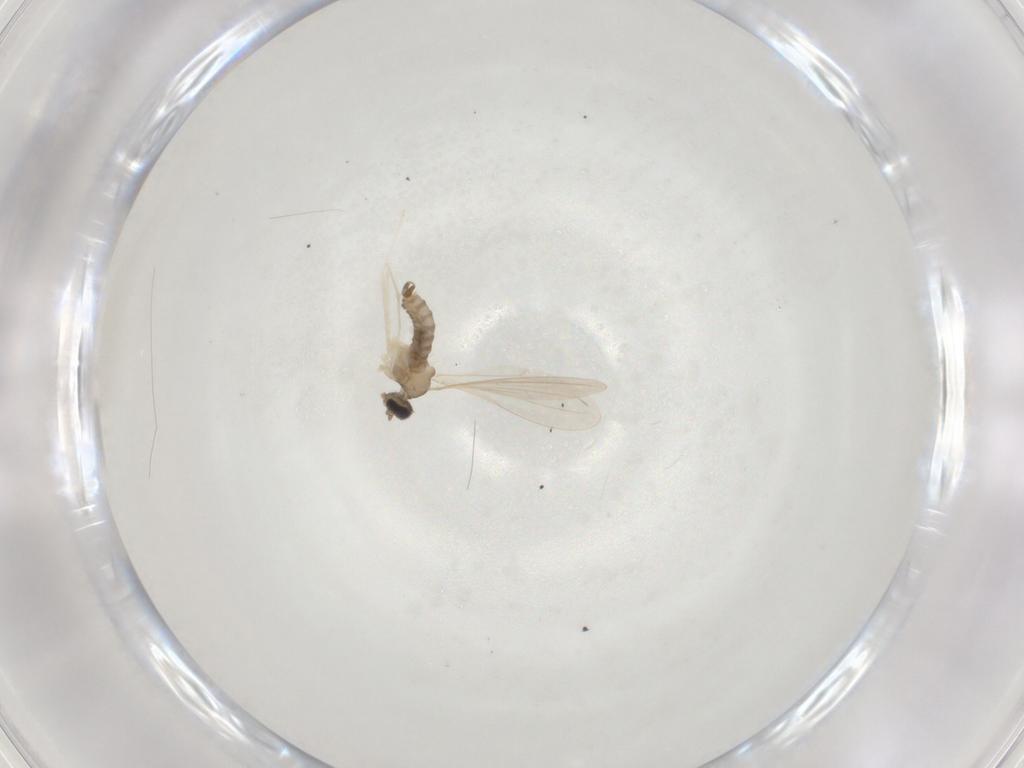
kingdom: Animalia
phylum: Arthropoda
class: Insecta
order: Diptera
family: Cecidomyiidae
